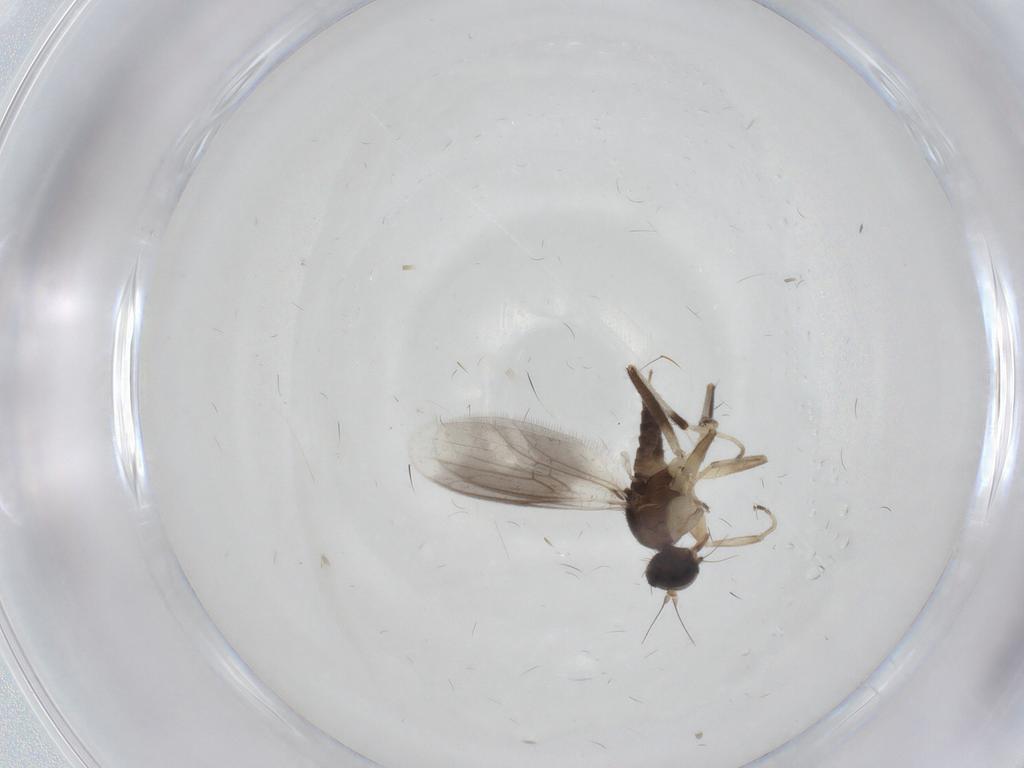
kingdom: Animalia
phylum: Arthropoda
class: Insecta
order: Diptera
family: Hybotidae
